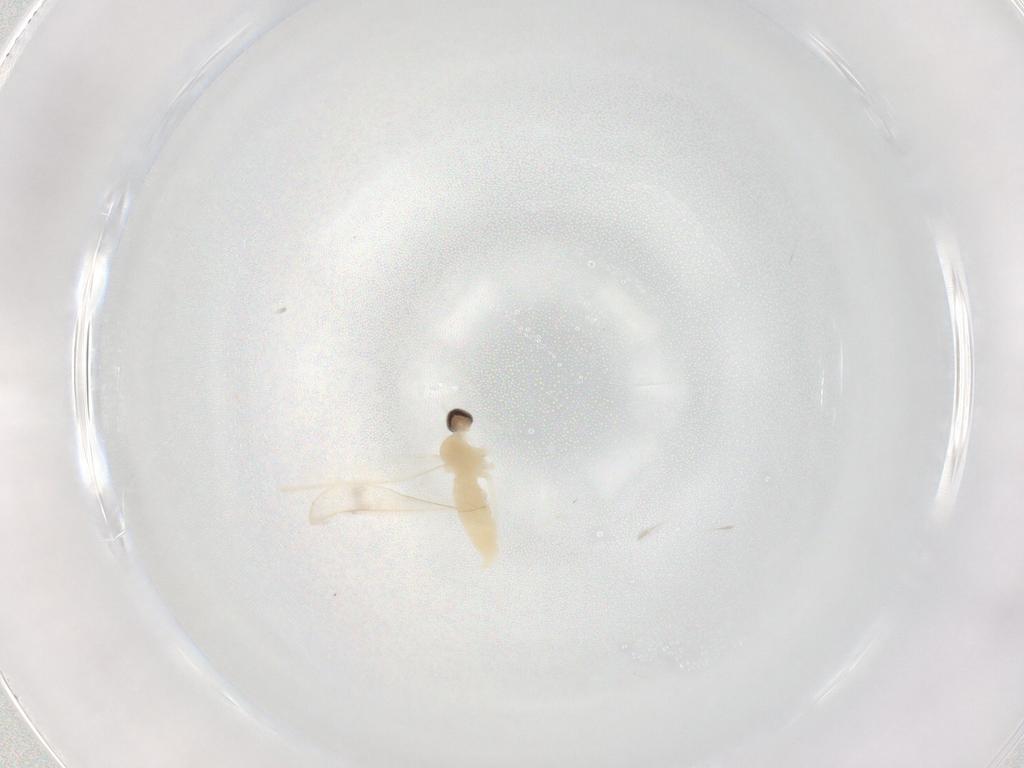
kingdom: Animalia
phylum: Arthropoda
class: Insecta
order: Diptera
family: Cecidomyiidae
